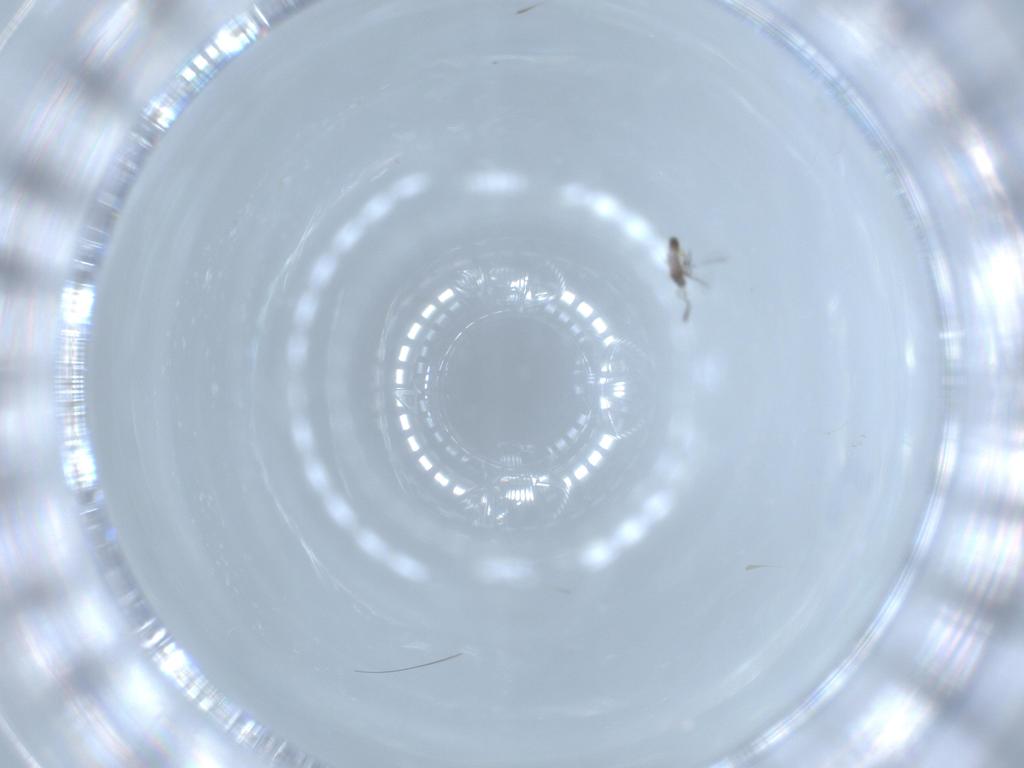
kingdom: Animalia
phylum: Arthropoda
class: Insecta
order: Hymenoptera
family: Mymaridae
